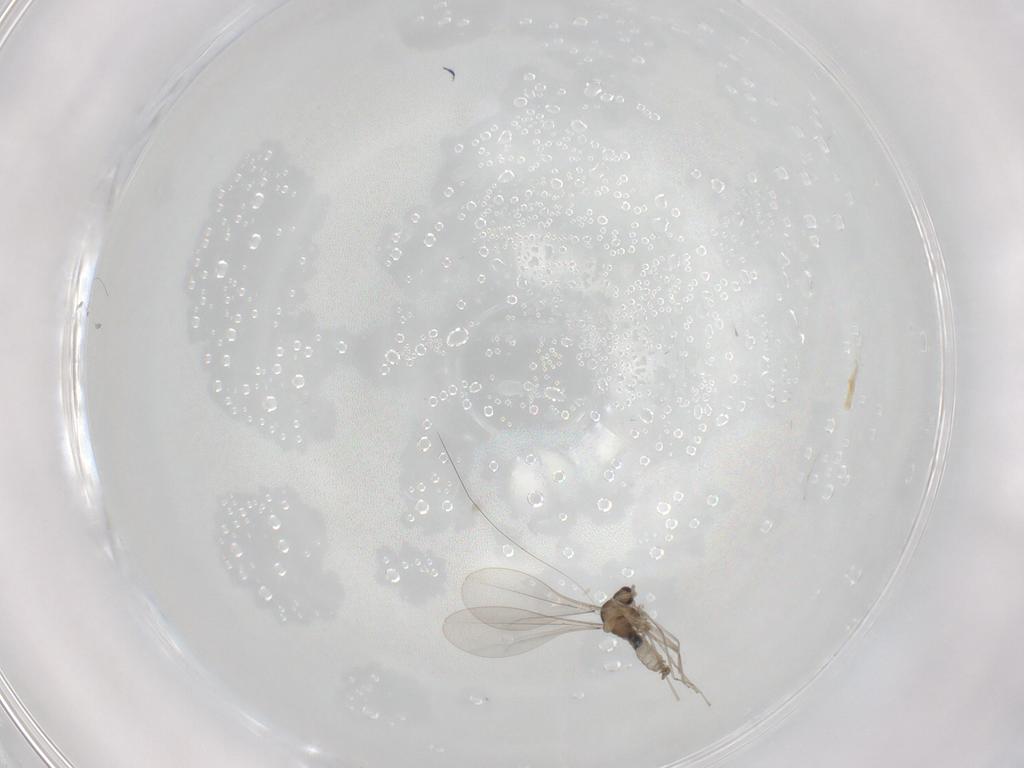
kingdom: Animalia
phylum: Arthropoda
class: Insecta
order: Diptera
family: Cecidomyiidae
